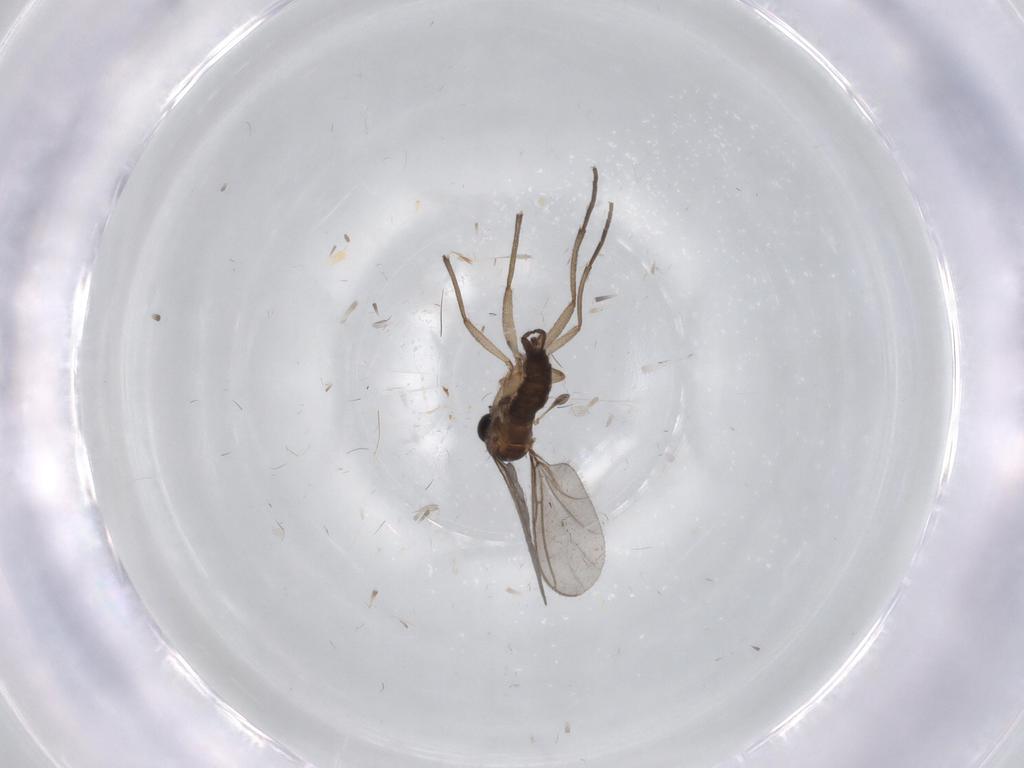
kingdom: Animalia
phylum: Arthropoda
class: Insecta
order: Diptera
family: Sciaridae
